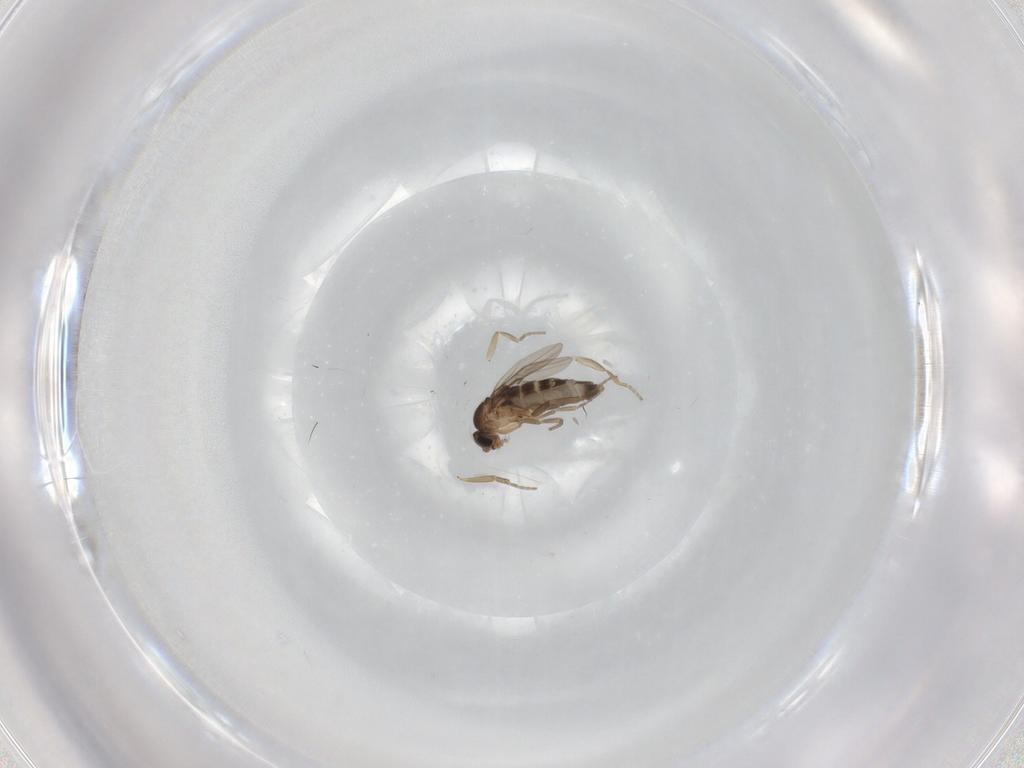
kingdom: Animalia
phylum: Arthropoda
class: Insecta
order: Diptera
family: Phoridae
